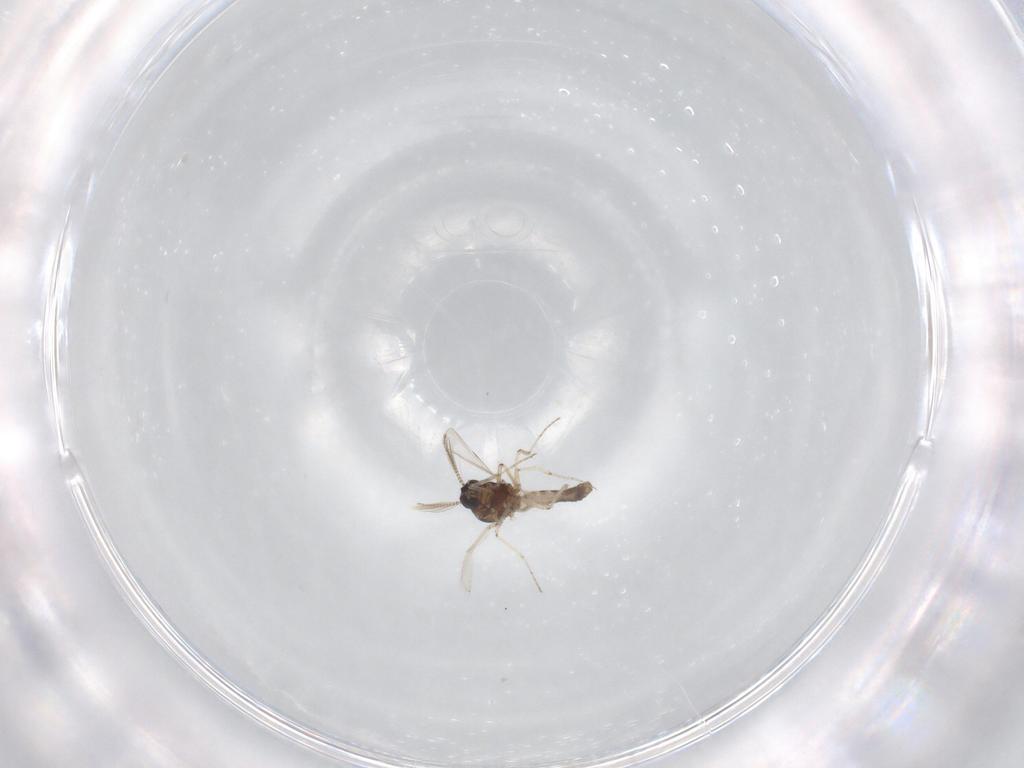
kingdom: Animalia
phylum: Arthropoda
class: Insecta
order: Diptera
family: Ceratopogonidae
